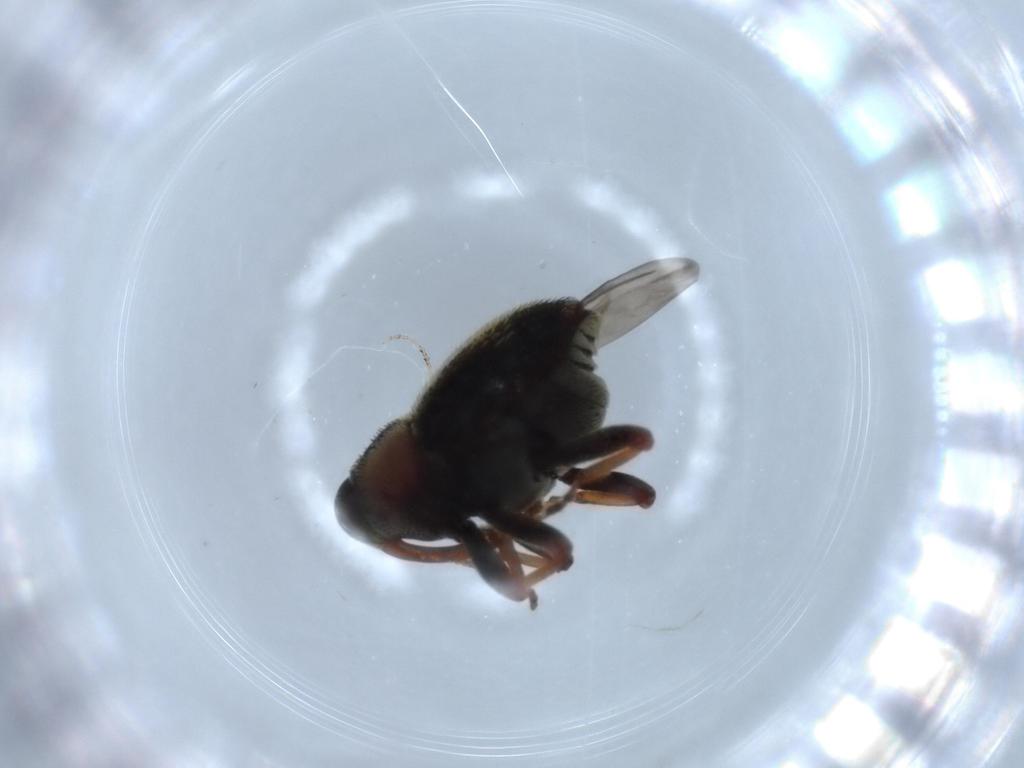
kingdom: Animalia
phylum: Arthropoda
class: Insecta
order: Coleoptera
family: Curculionidae
